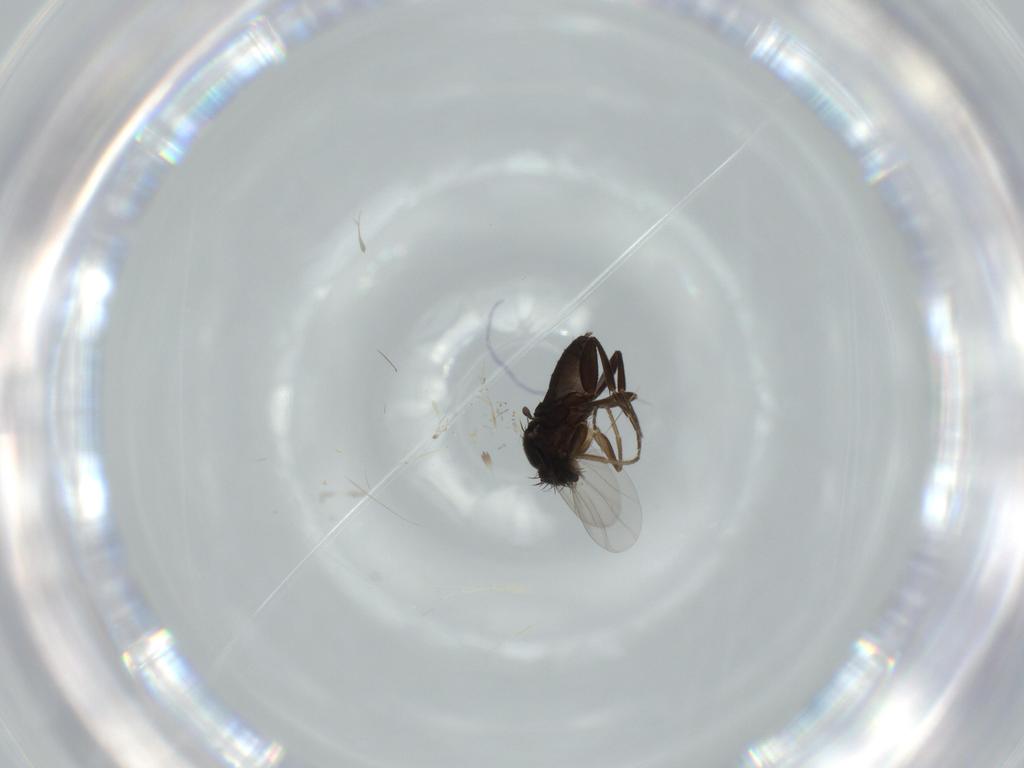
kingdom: Animalia
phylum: Arthropoda
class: Insecta
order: Diptera
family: Phoridae
